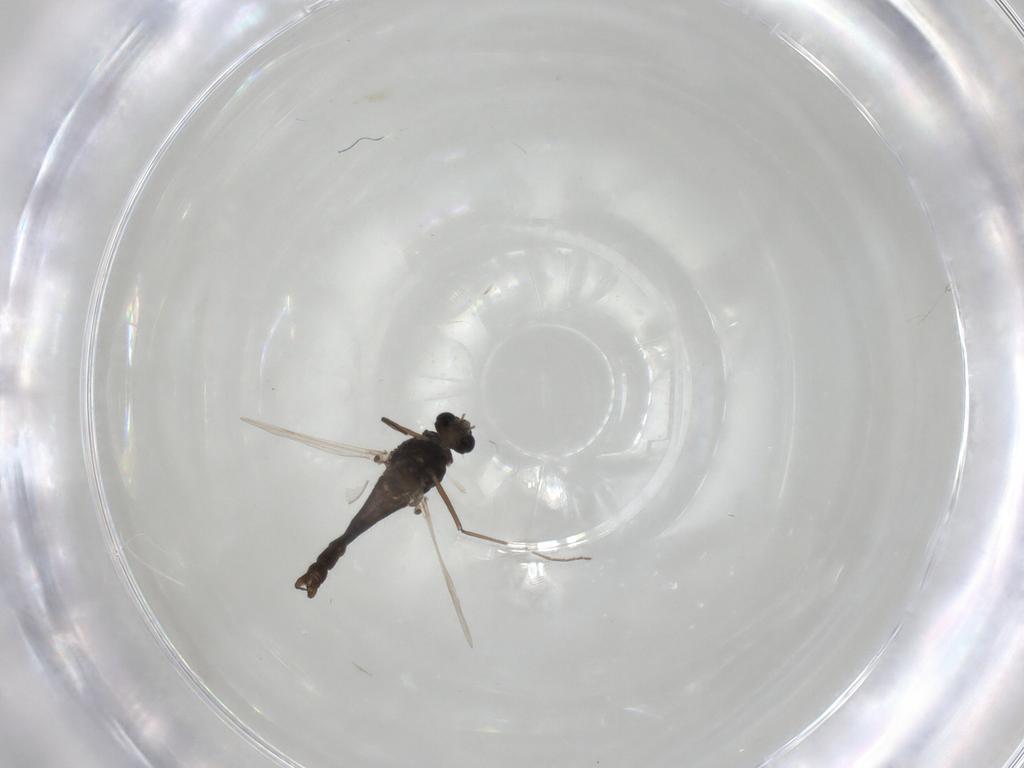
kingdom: Animalia
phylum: Arthropoda
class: Insecta
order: Diptera
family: Chironomidae
